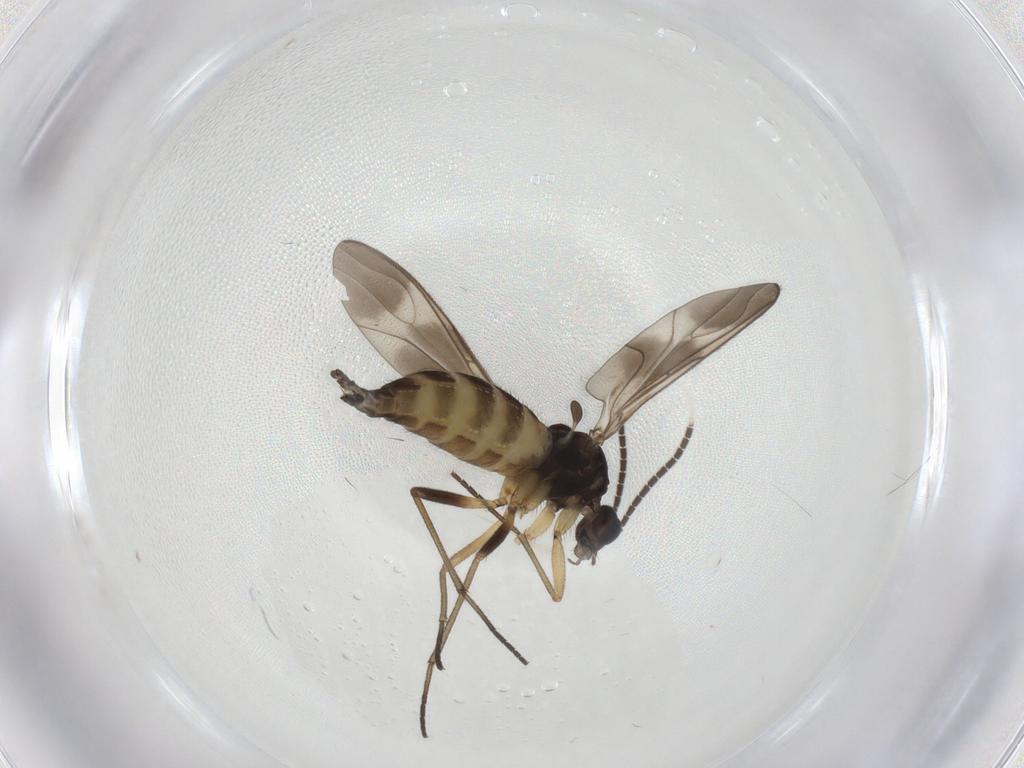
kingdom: Animalia
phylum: Arthropoda
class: Insecta
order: Diptera
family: Sciaridae
